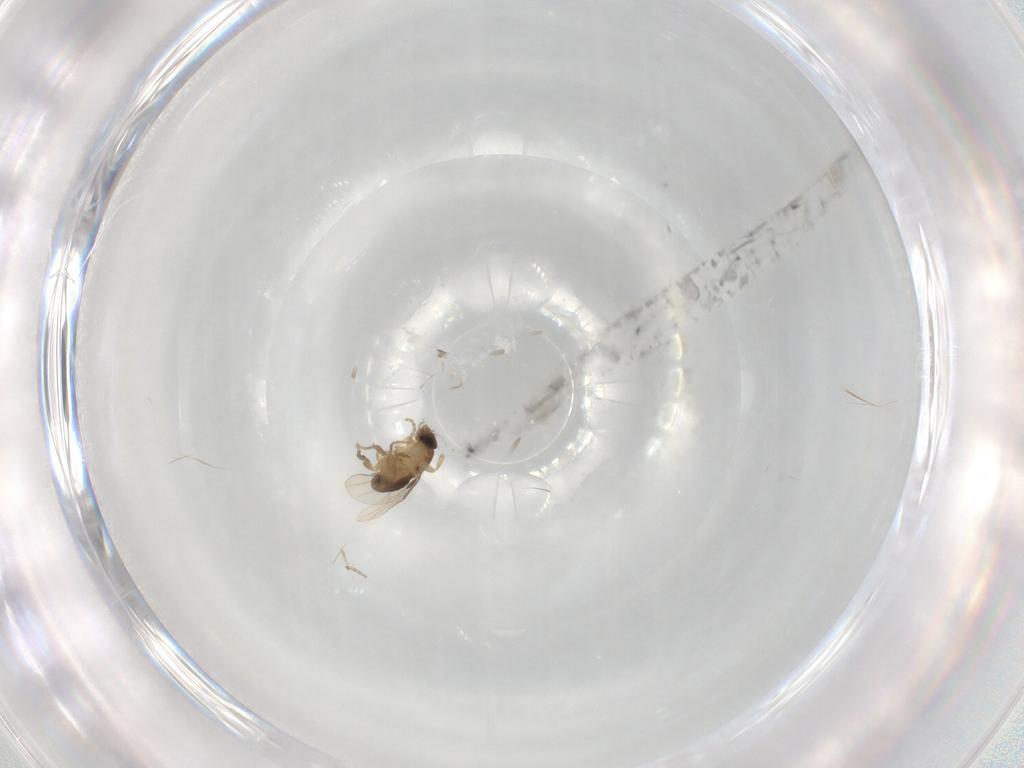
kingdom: Animalia
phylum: Arthropoda
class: Insecta
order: Diptera
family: Phoridae
